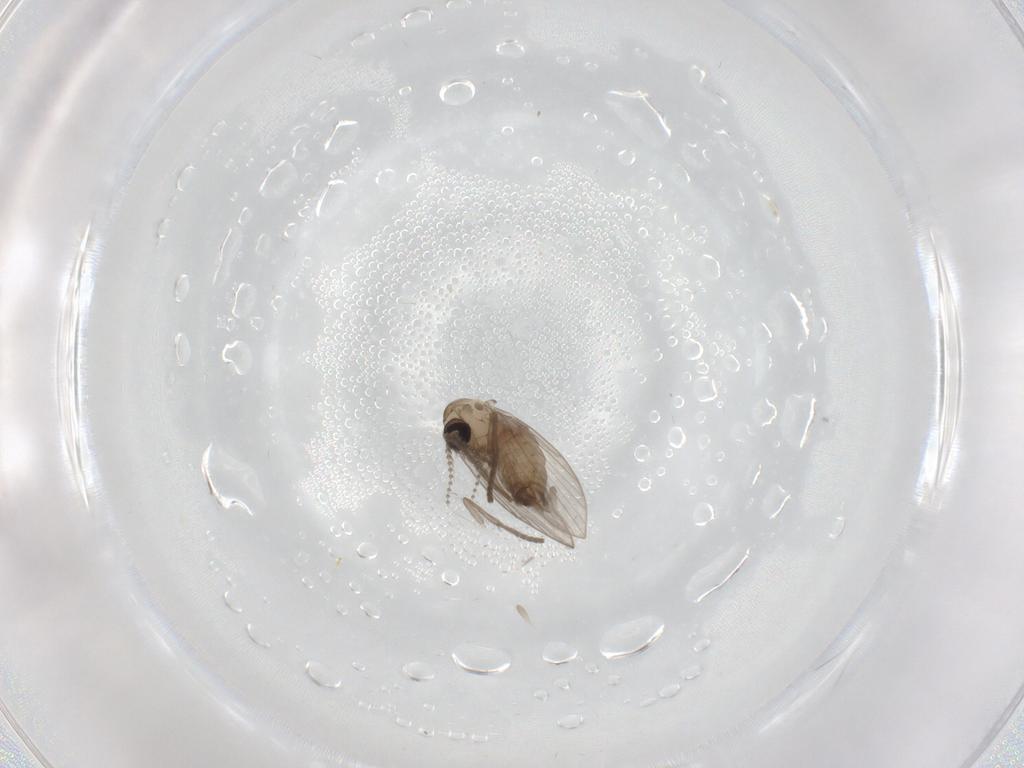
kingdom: Animalia
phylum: Arthropoda
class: Insecta
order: Diptera
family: Psychodidae
